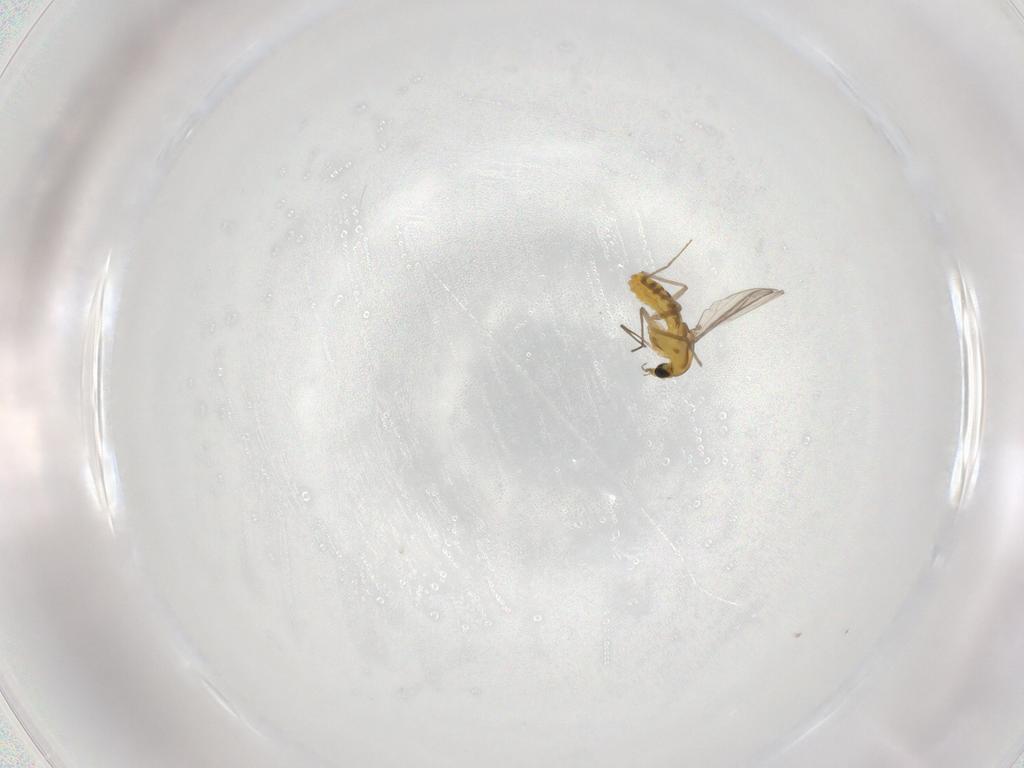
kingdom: Animalia
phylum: Arthropoda
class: Insecta
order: Diptera
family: Chironomidae
